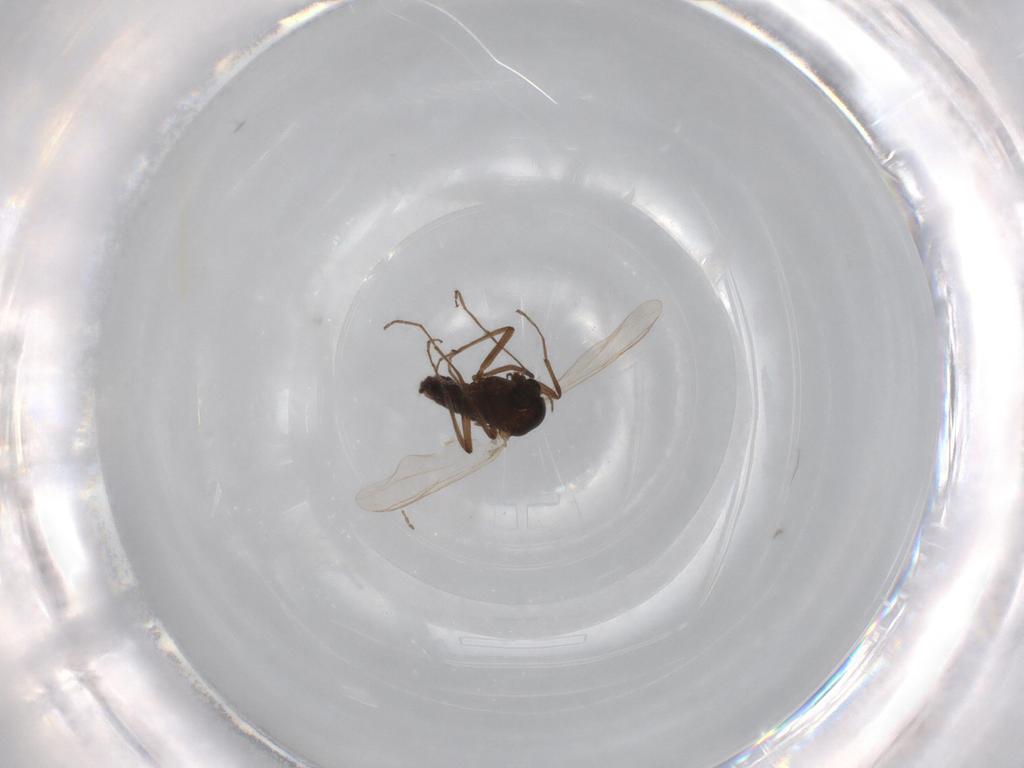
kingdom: Animalia
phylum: Arthropoda
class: Insecta
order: Diptera
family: Chironomidae
